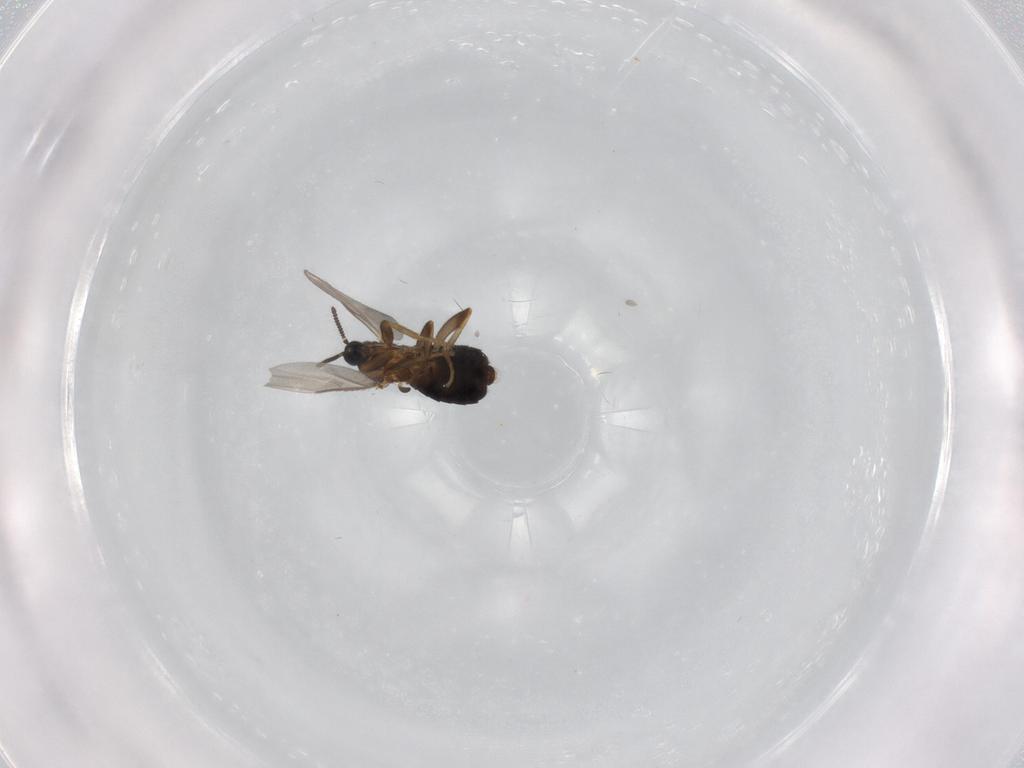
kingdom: Animalia
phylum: Arthropoda
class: Insecta
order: Diptera
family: Scatopsidae
